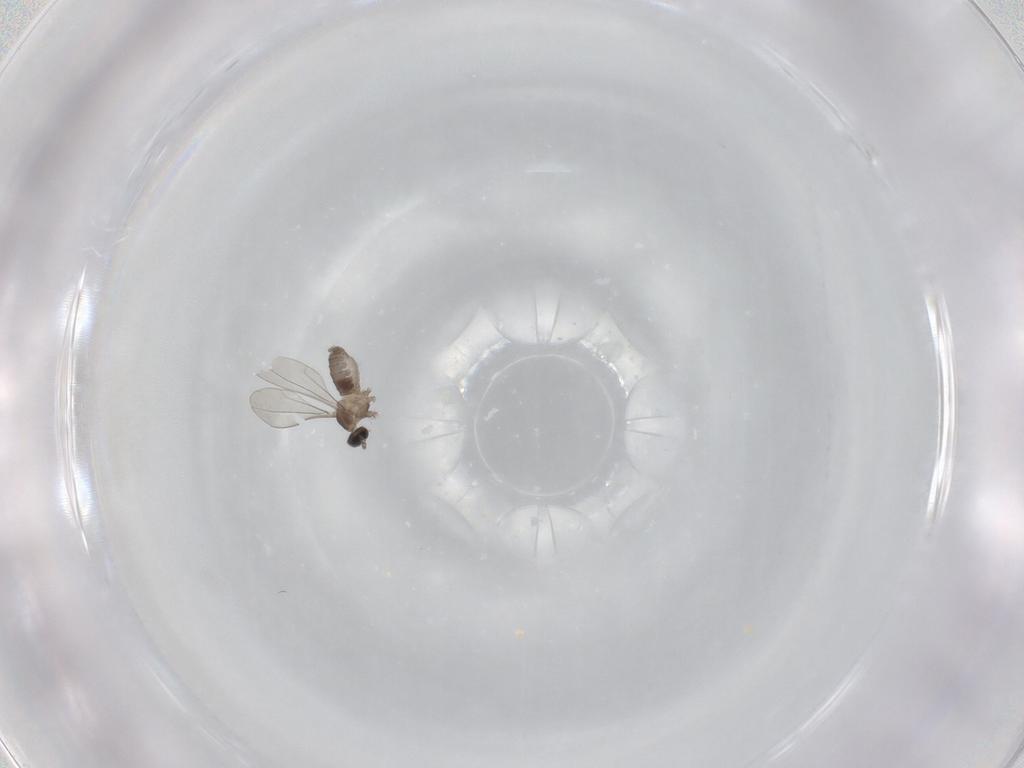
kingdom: Animalia
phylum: Arthropoda
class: Insecta
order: Diptera
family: Cecidomyiidae
